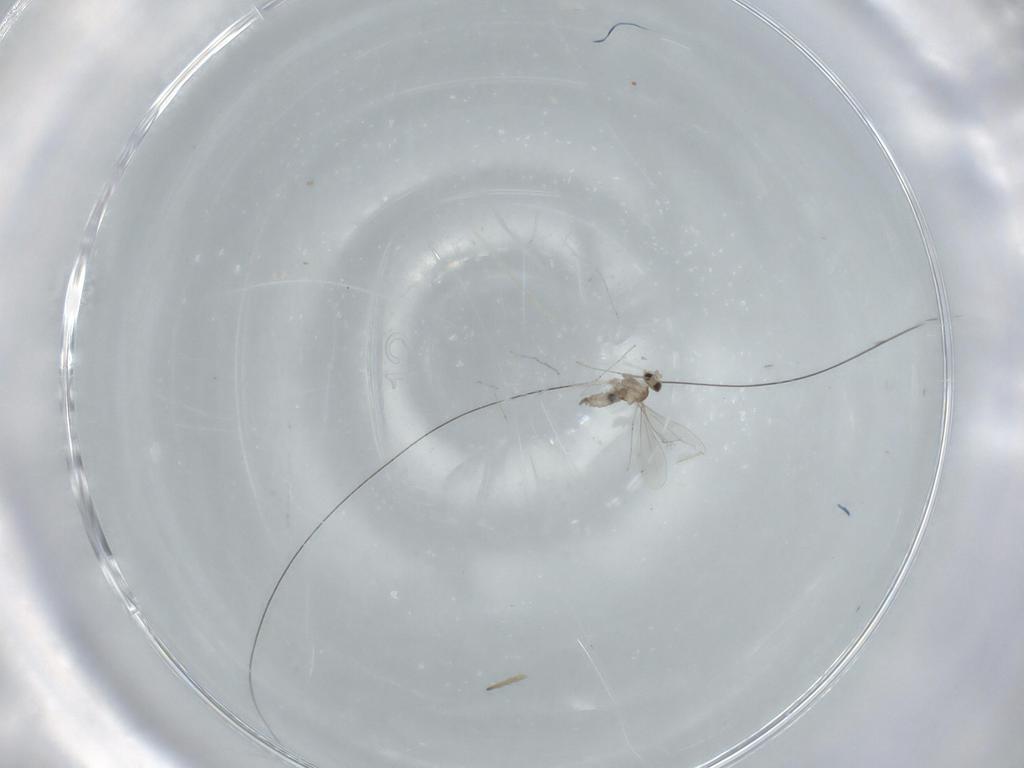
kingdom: Animalia
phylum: Arthropoda
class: Insecta
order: Diptera
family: Cecidomyiidae
